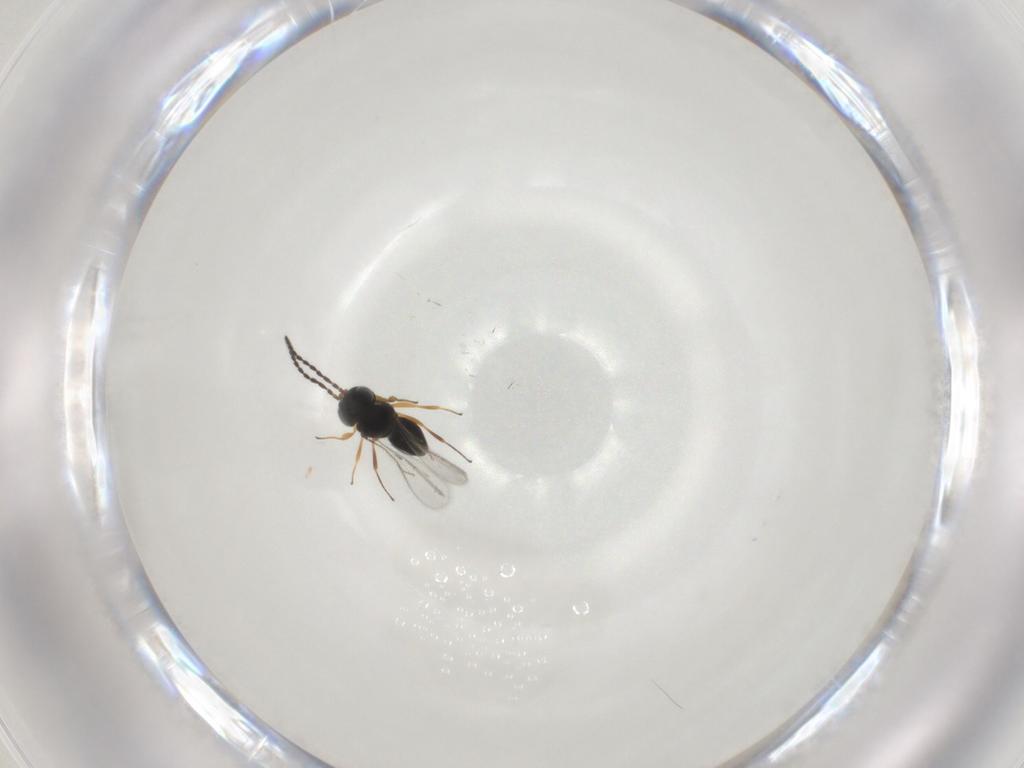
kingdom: Animalia
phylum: Arthropoda
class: Insecta
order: Hymenoptera
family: Scelionidae
